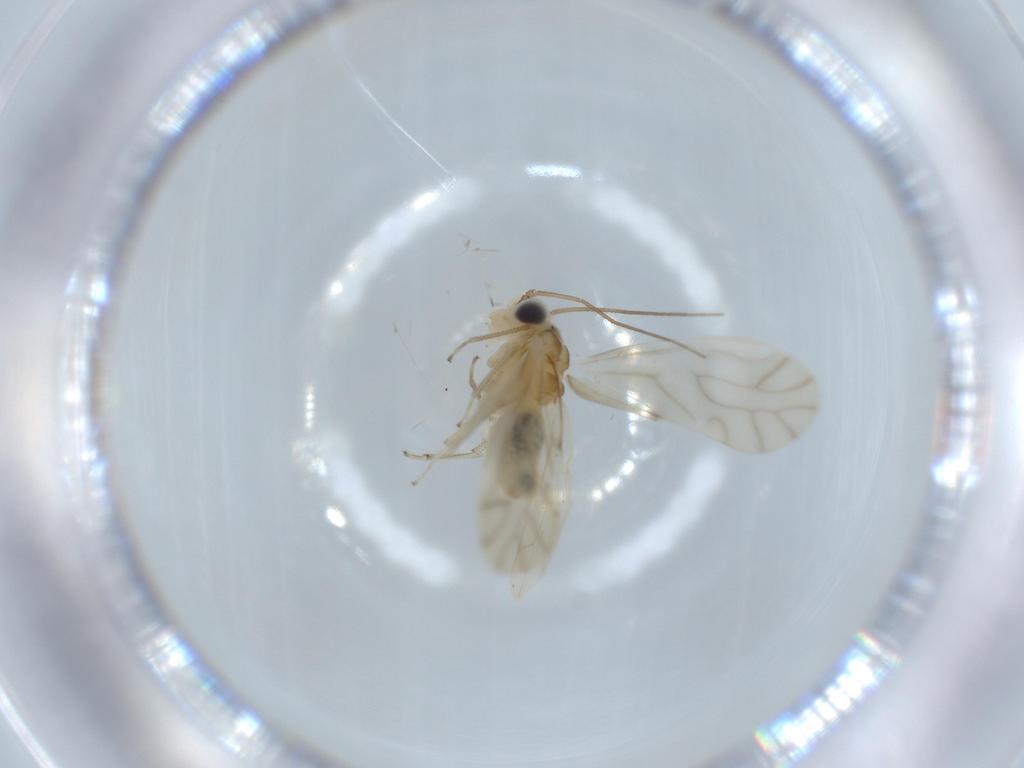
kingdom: Animalia
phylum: Arthropoda
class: Insecta
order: Psocodea
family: Caeciliusidae
